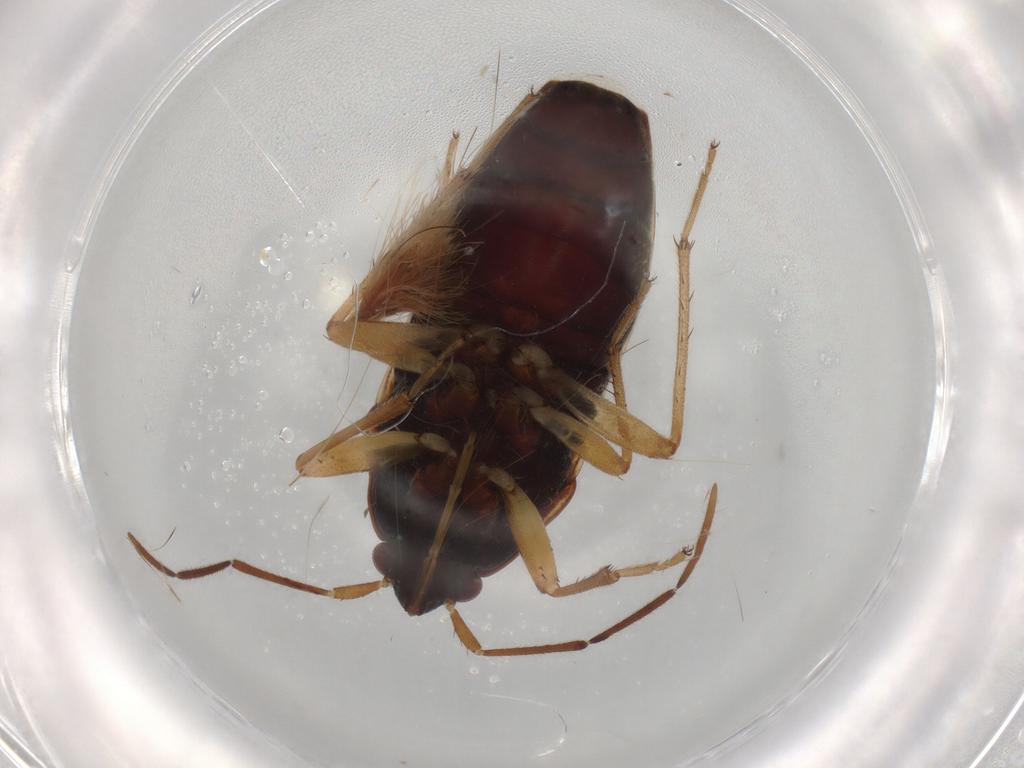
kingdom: Animalia
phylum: Arthropoda
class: Insecta
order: Hemiptera
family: Rhyparochromidae
